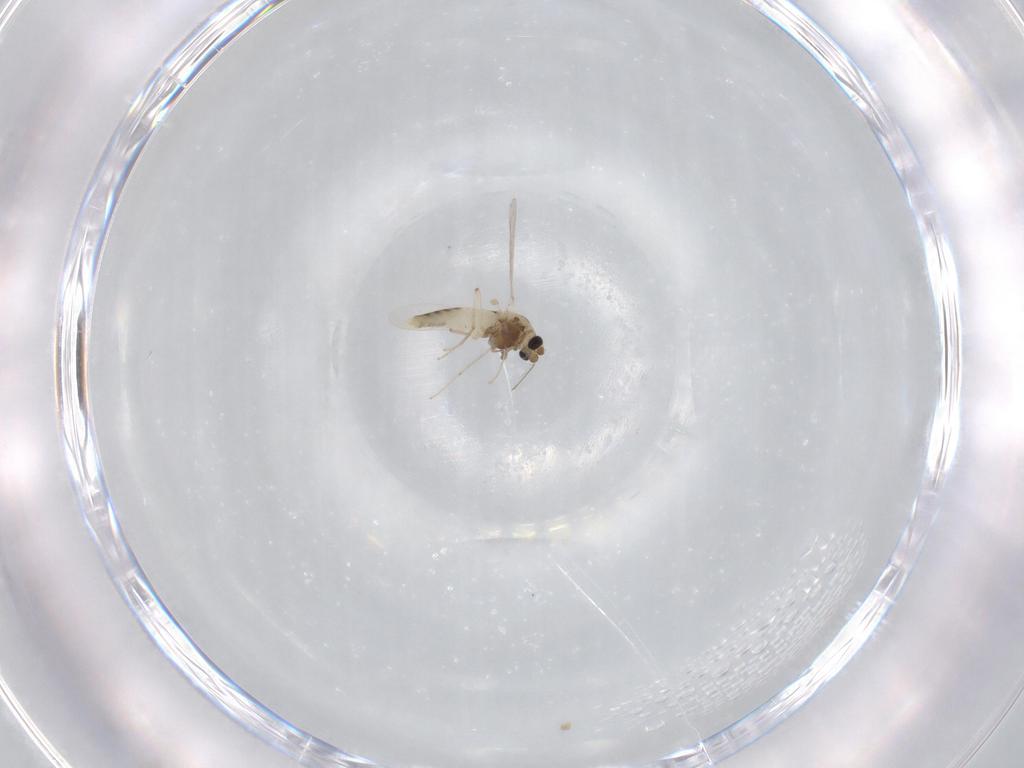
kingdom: Animalia
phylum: Arthropoda
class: Insecta
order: Diptera
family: Chironomidae
